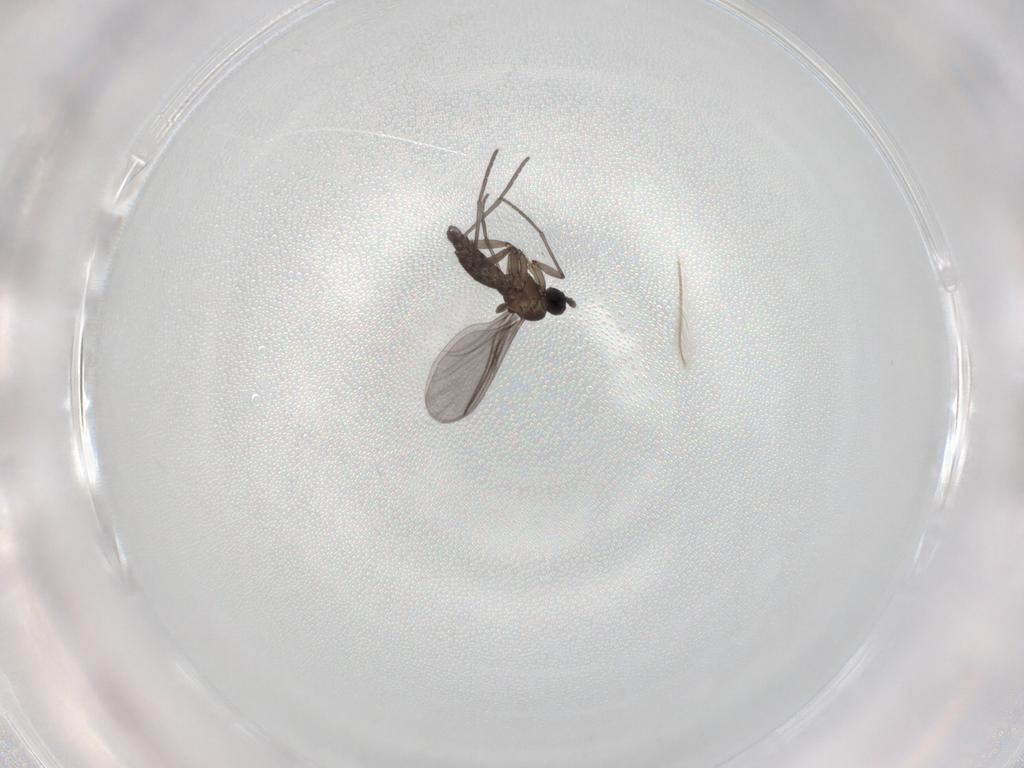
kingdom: Animalia
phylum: Arthropoda
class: Insecta
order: Diptera
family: Chironomidae
